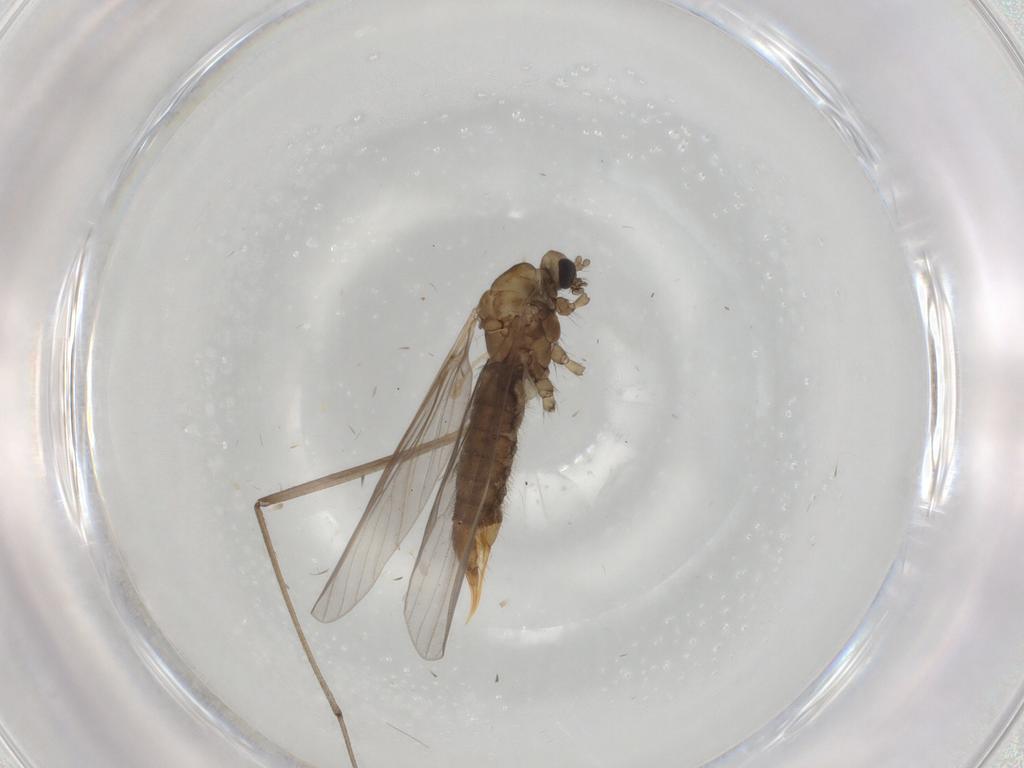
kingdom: Animalia
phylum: Arthropoda
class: Insecta
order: Diptera
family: Limoniidae
